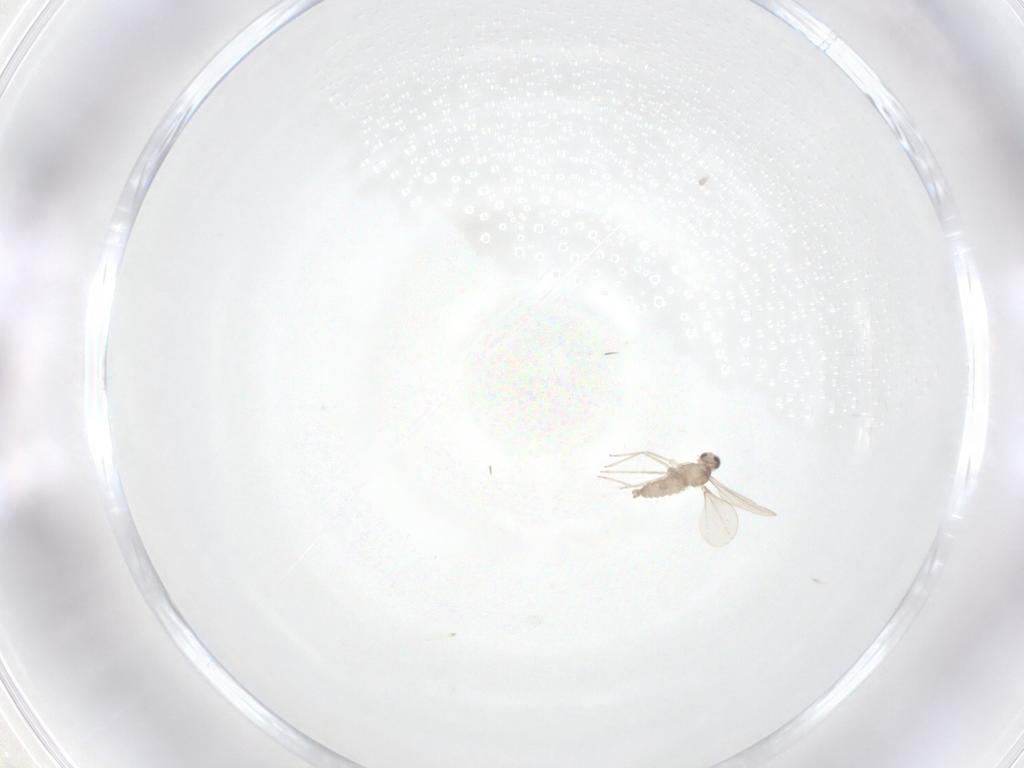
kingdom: Animalia
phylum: Arthropoda
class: Insecta
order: Diptera
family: Cecidomyiidae
